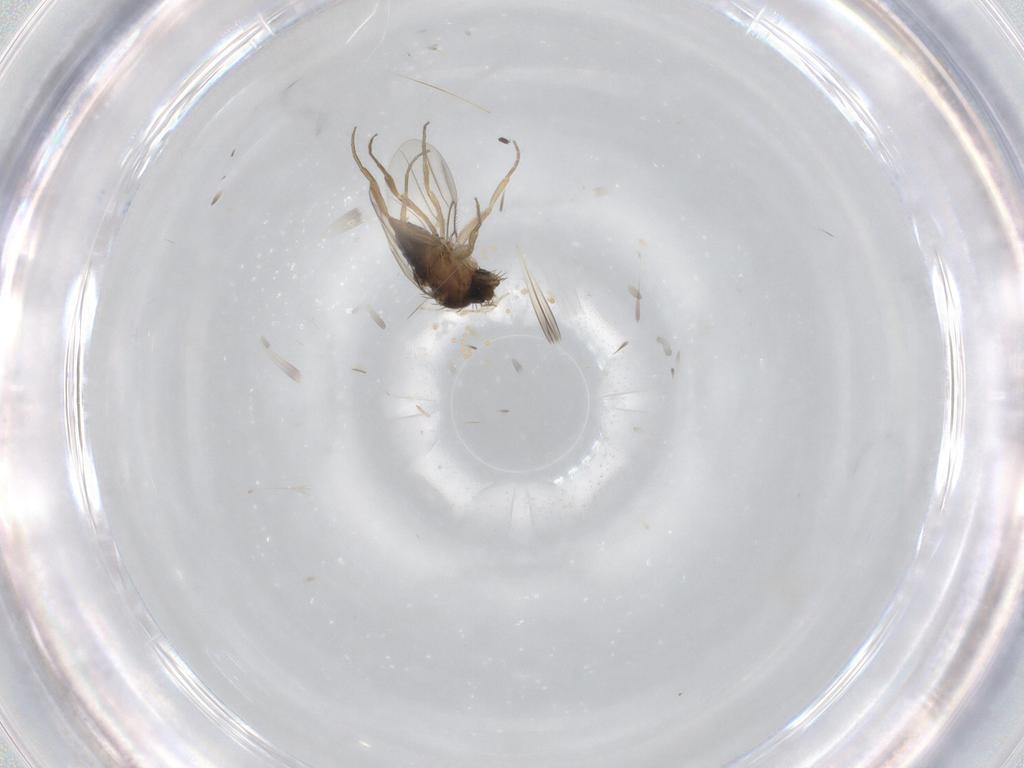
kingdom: Animalia
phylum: Arthropoda
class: Insecta
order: Diptera
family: Phoridae
